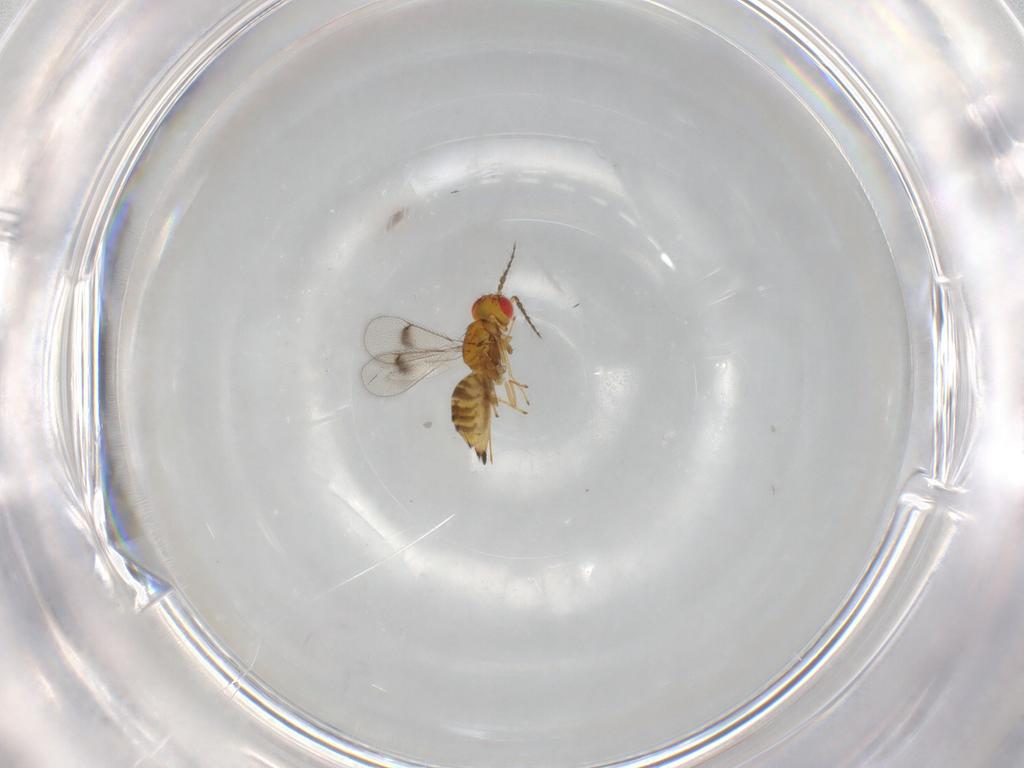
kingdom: Animalia
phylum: Arthropoda
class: Insecta
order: Hymenoptera
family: Eulophidae
